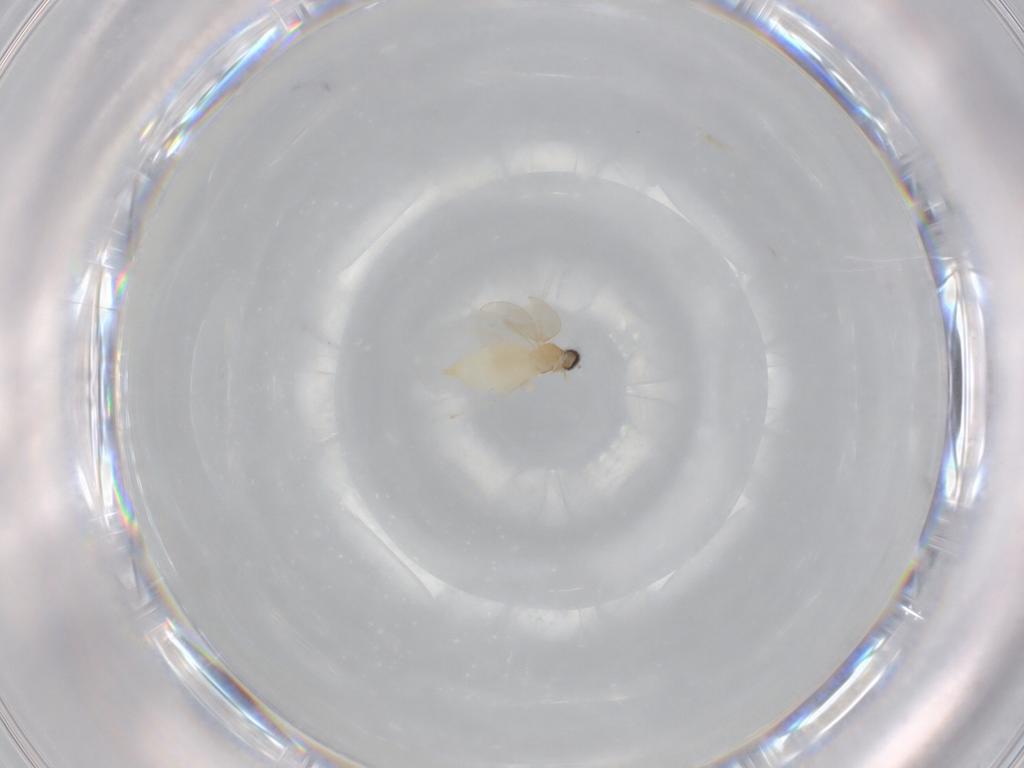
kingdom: Animalia
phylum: Arthropoda
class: Insecta
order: Diptera
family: Cecidomyiidae
